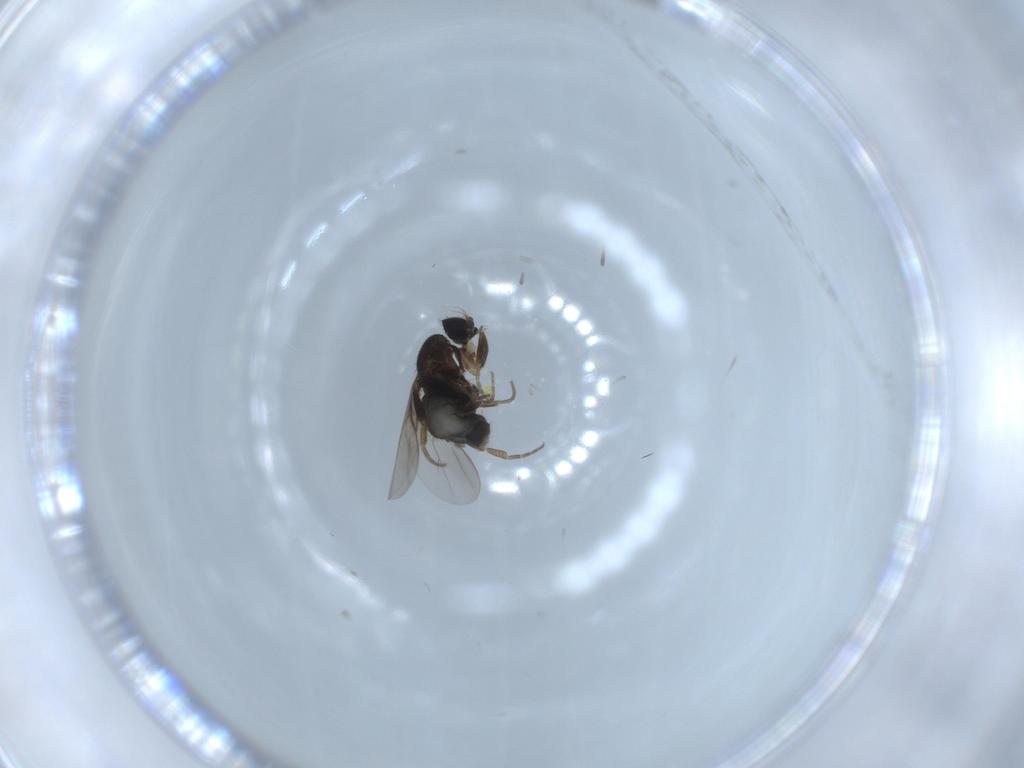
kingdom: Animalia
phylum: Arthropoda
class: Insecta
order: Diptera
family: Phoridae
